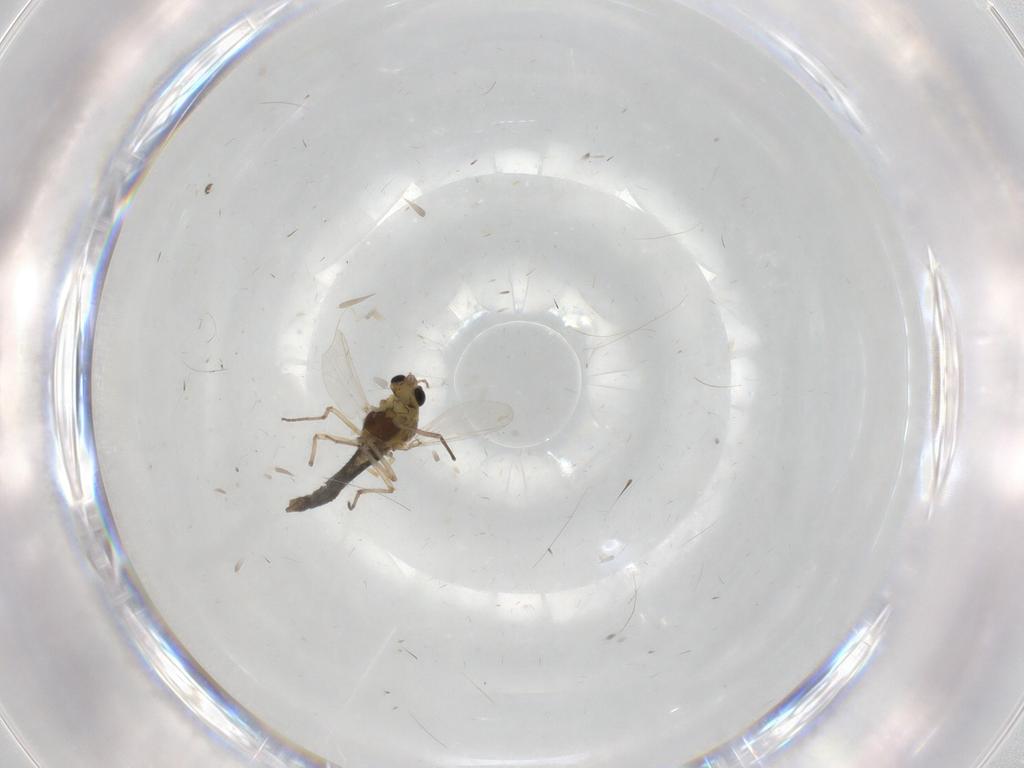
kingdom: Animalia
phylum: Arthropoda
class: Insecta
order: Diptera
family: Chironomidae
